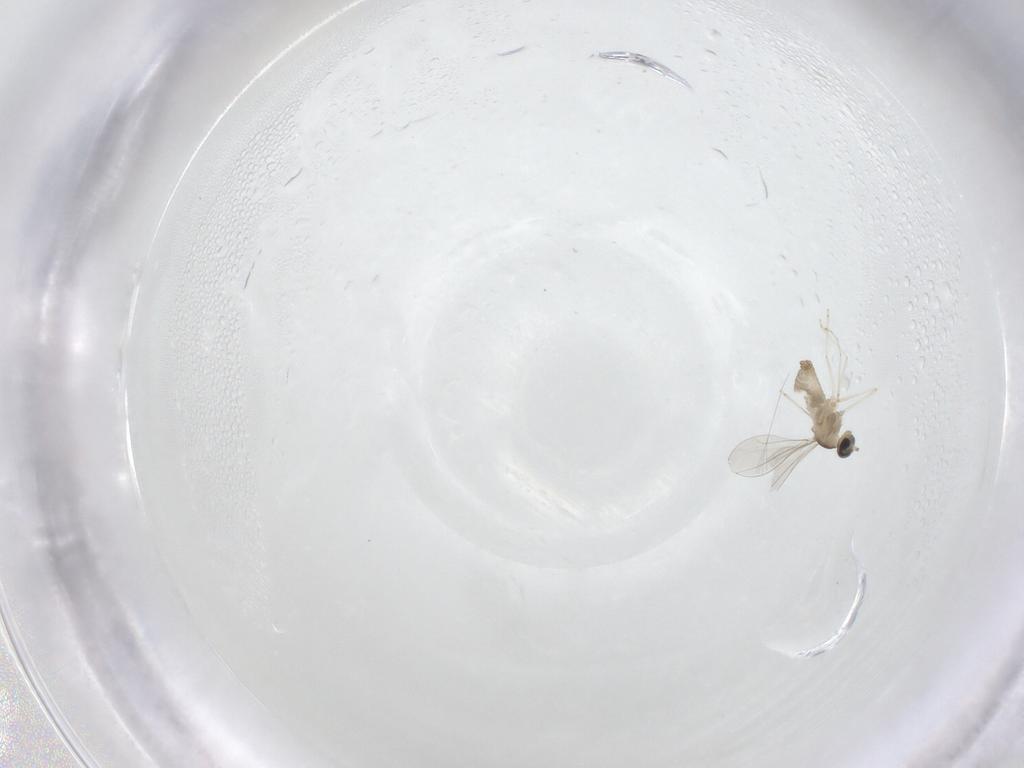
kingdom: Animalia
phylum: Arthropoda
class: Insecta
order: Diptera
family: Cecidomyiidae
